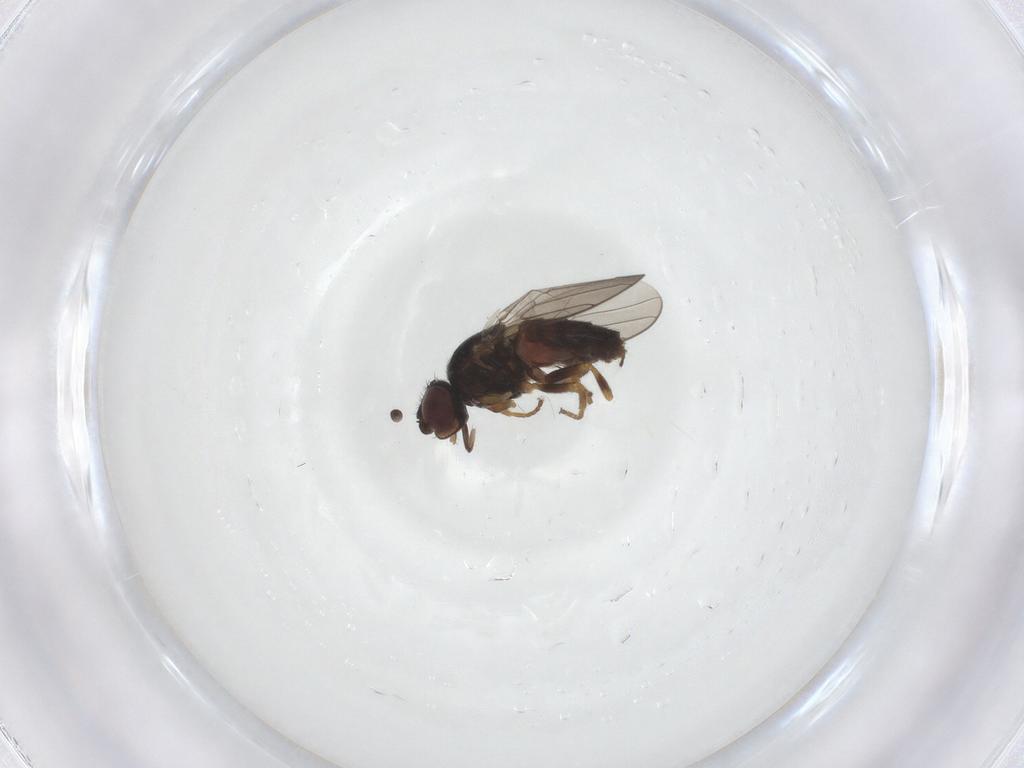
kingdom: Animalia
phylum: Arthropoda
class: Insecta
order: Diptera
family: Chloropidae
